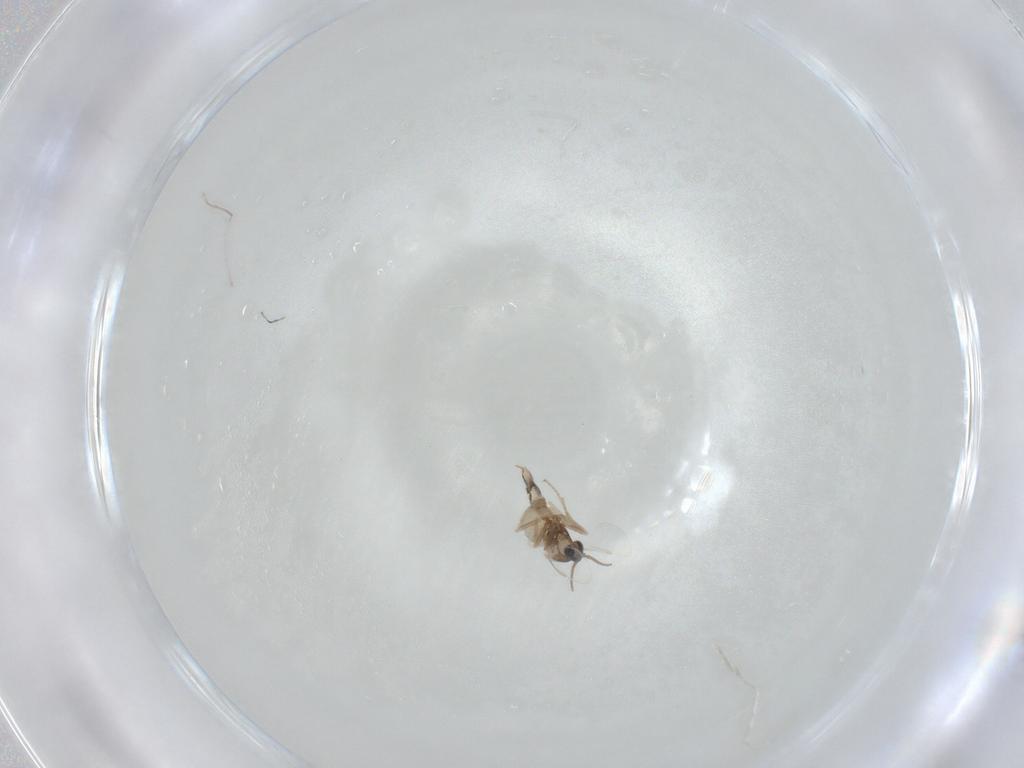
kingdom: Animalia
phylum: Arthropoda
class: Insecta
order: Diptera
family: Cecidomyiidae
